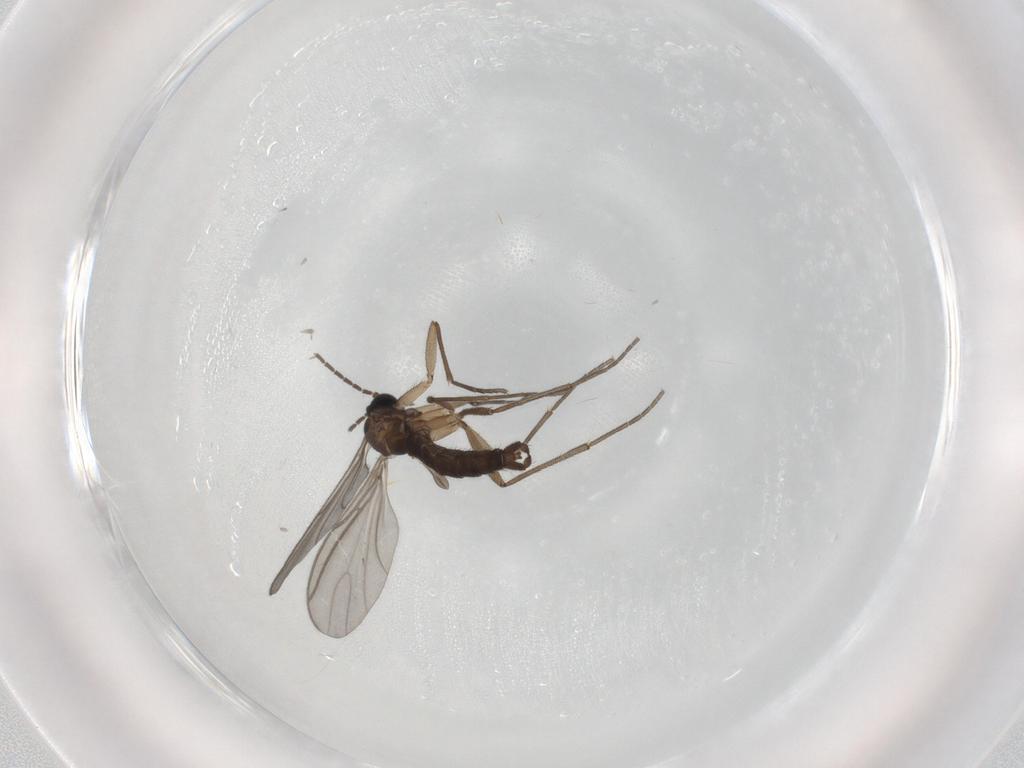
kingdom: Animalia
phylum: Arthropoda
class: Insecta
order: Diptera
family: Sciaridae
